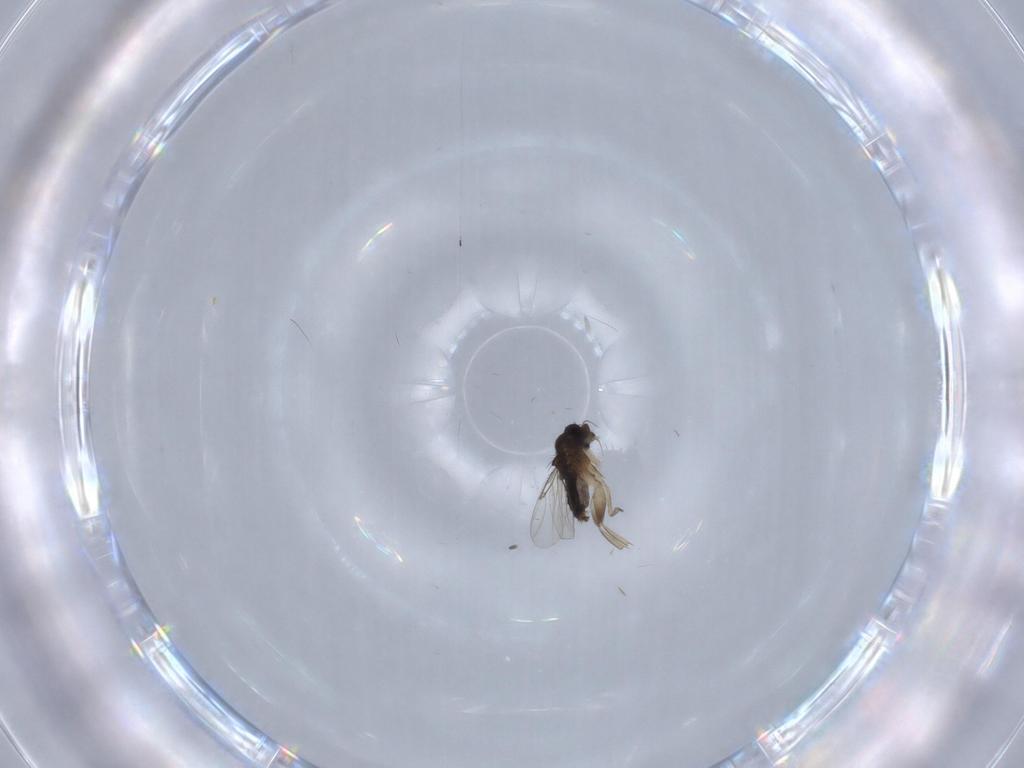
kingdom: Animalia
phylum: Arthropoda
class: Insecta
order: Diptera
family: Phoridae
